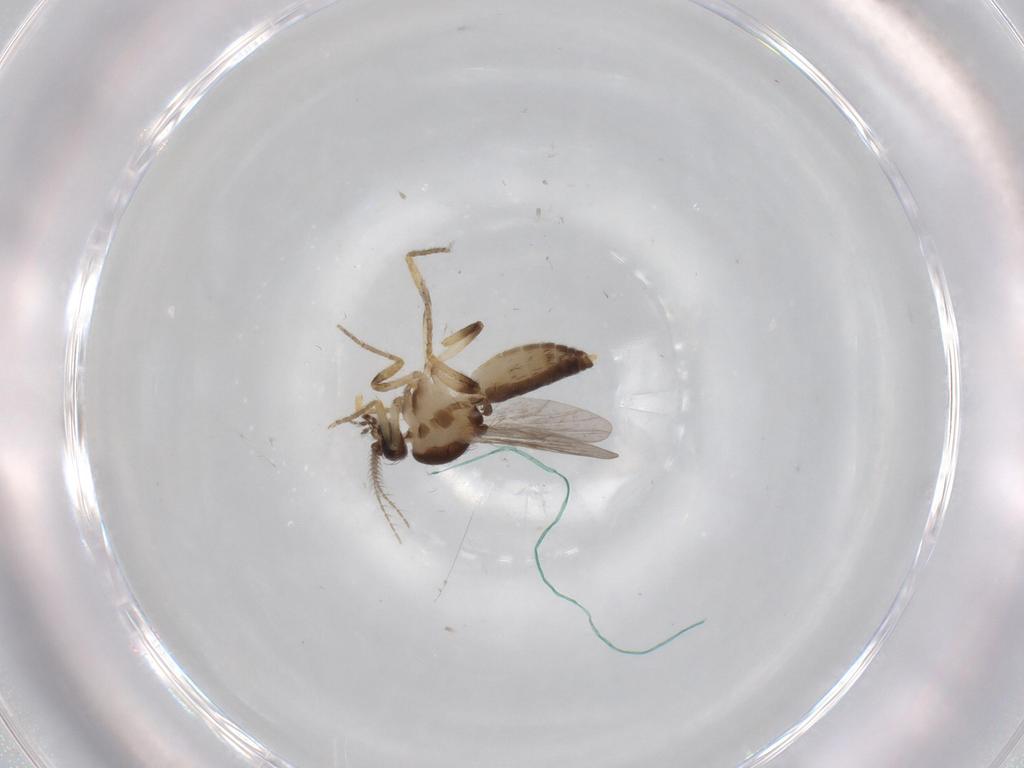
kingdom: Animalia
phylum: Arthropoda
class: Insecta
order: Diptera
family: Ceratopogonidae
